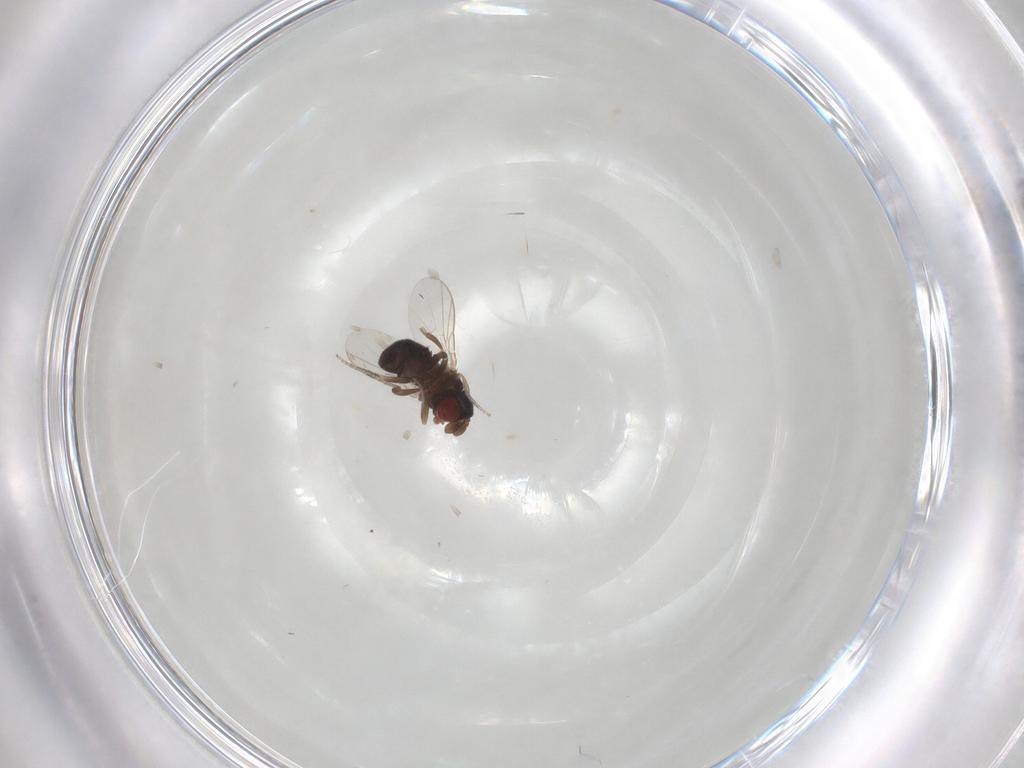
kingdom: Animalia
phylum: Arthropoda
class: Insecta
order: Diptera
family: Cryptochetidae
